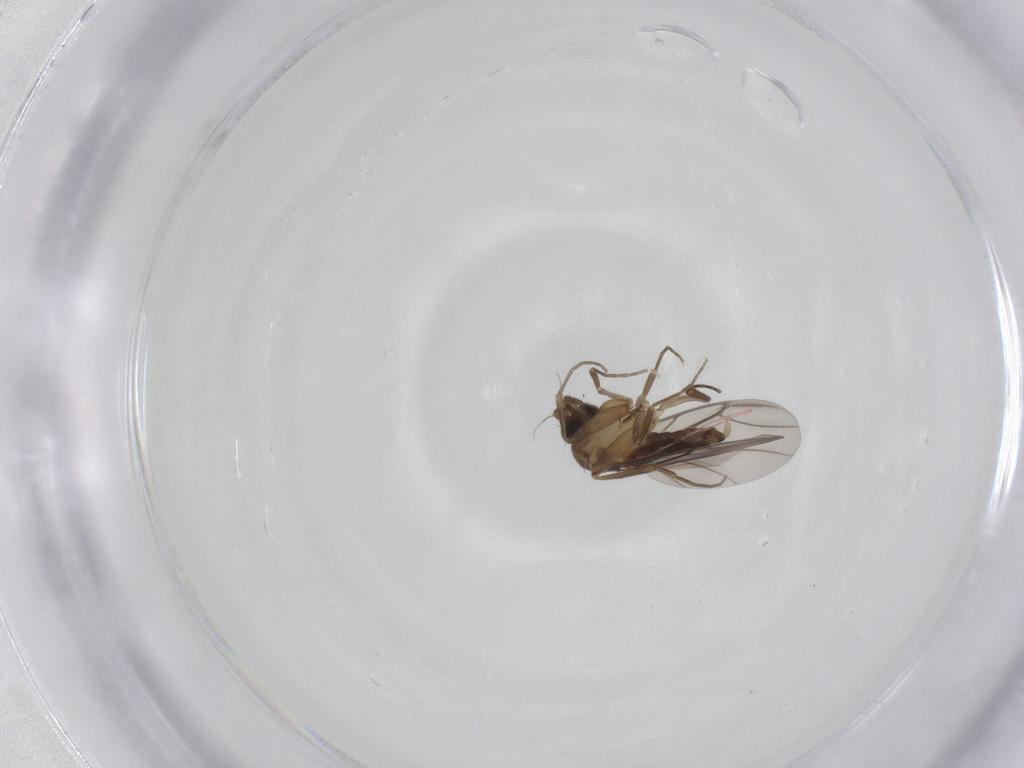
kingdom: Animalia
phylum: Arthropoda
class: Insecta
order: Diptera
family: Phoridae
